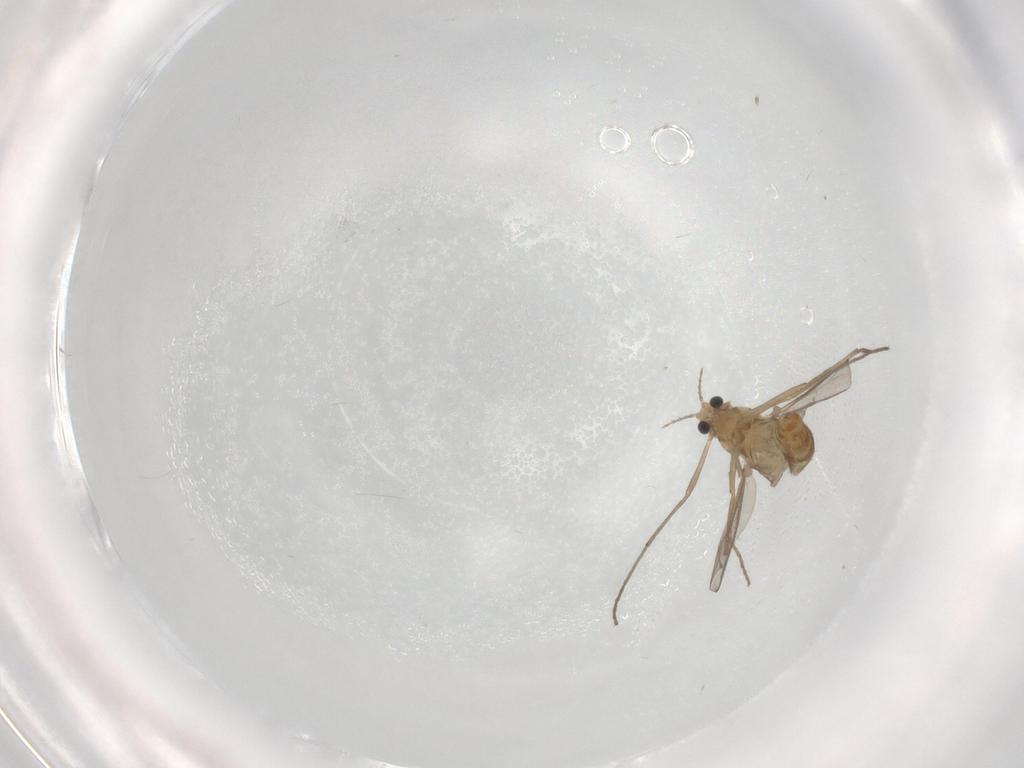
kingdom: Animalia
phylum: Arthropoda
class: Insecta
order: Diptera
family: Chironomidae
